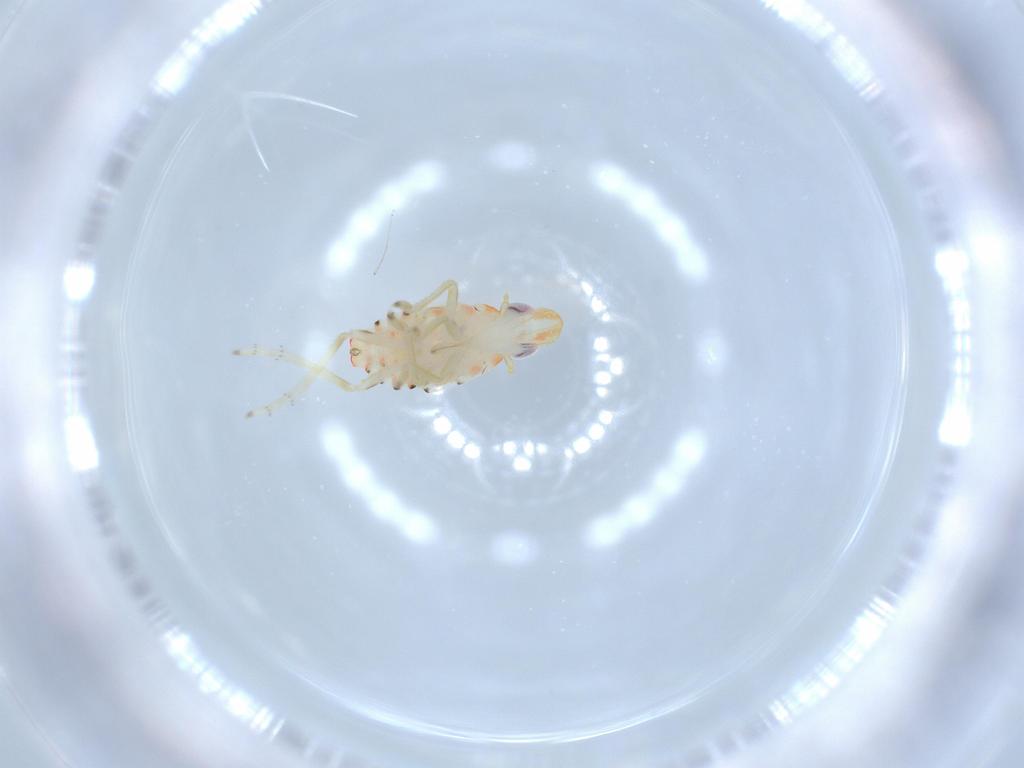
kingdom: Animalia
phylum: Arthropoda
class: Insecta
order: Hemiptera
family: Tropiduchidae
